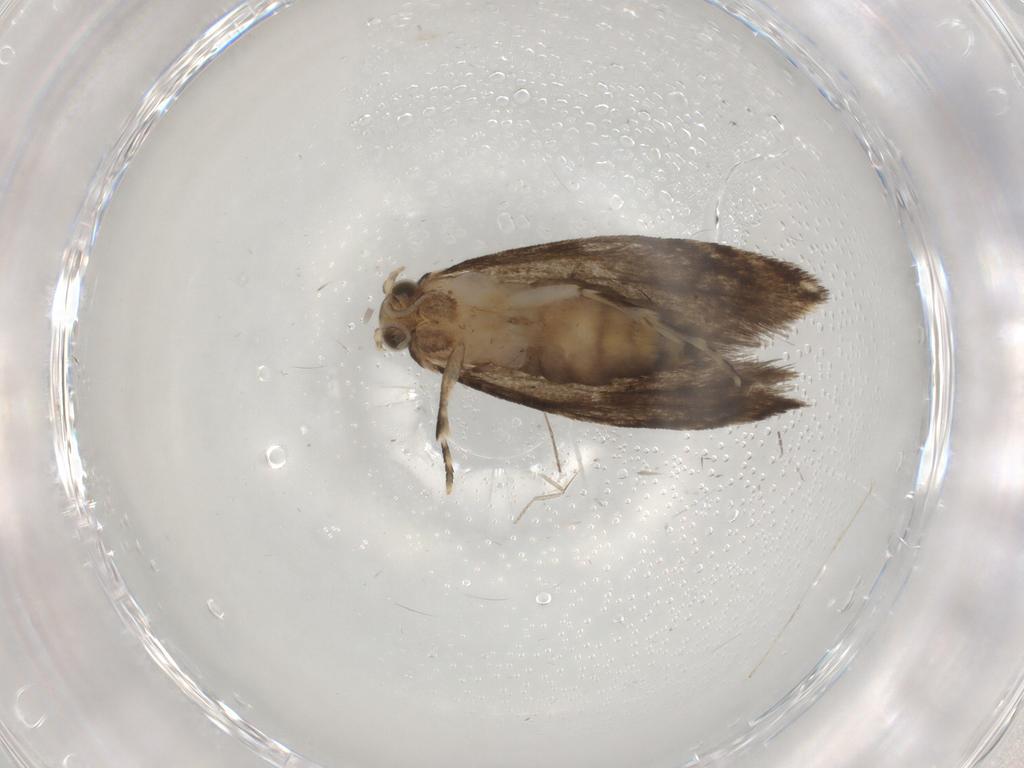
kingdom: Animalia
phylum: Arthropoda
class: Insecta
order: Lepidoptera
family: Tineidae
